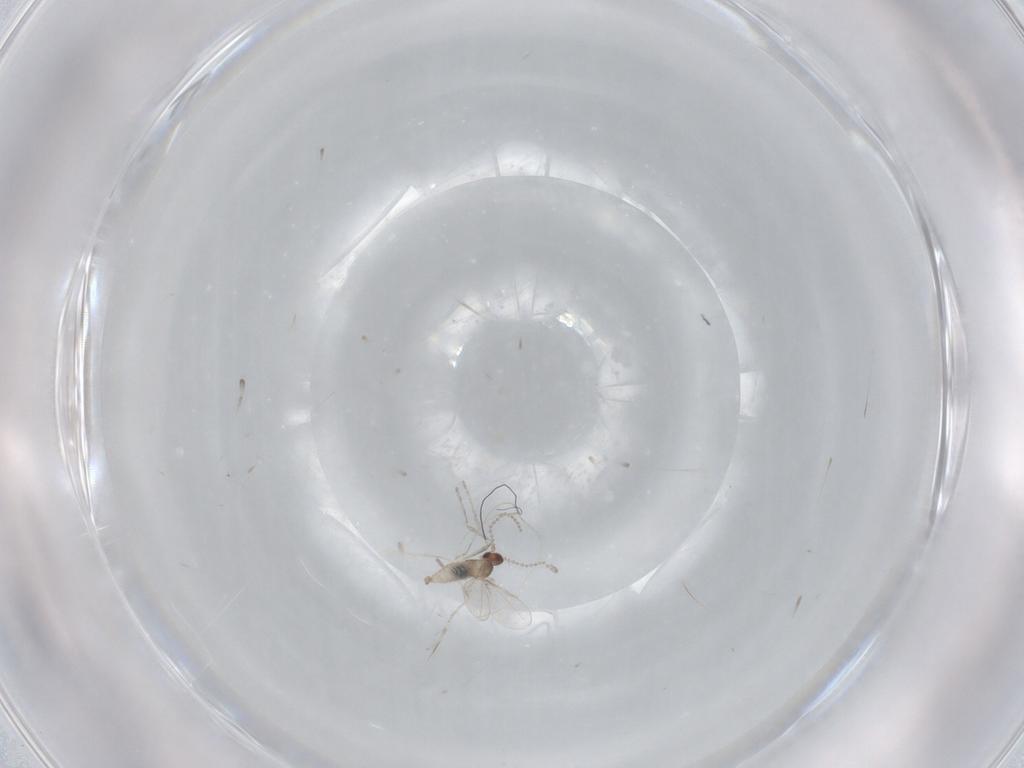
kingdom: Animalia
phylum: Arthropoda
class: Insecta
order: Diptera
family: Cecidomyiidae
